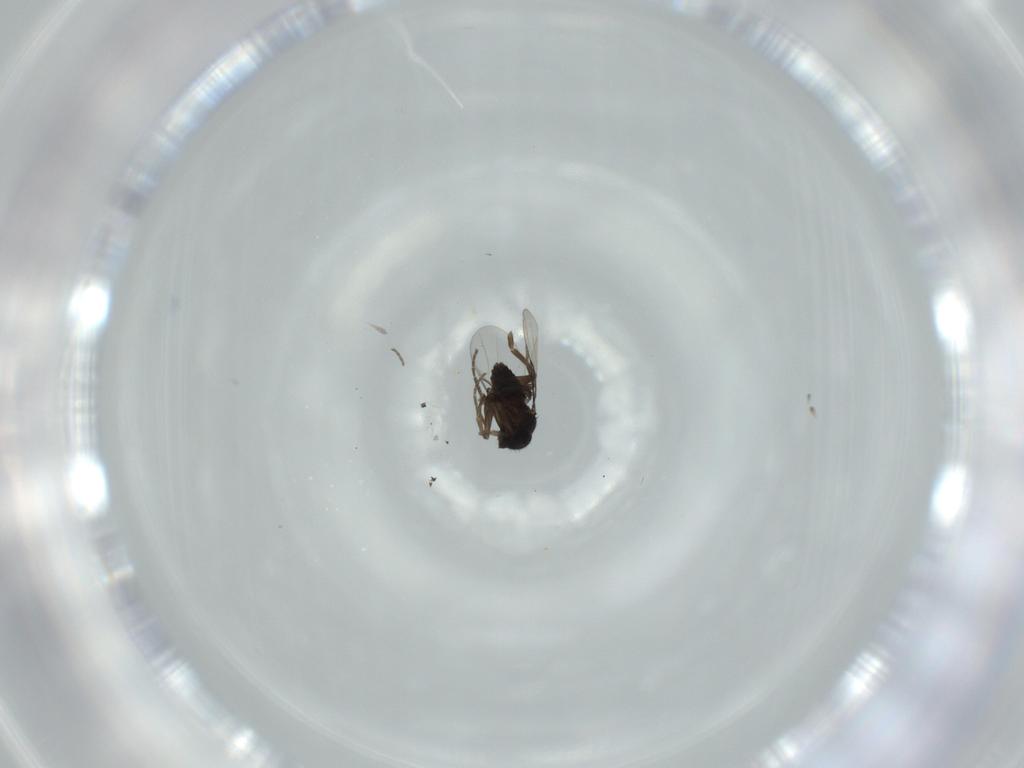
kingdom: Animalia
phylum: Arthropoda
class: Insecta
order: Diptera
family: Phoridae
